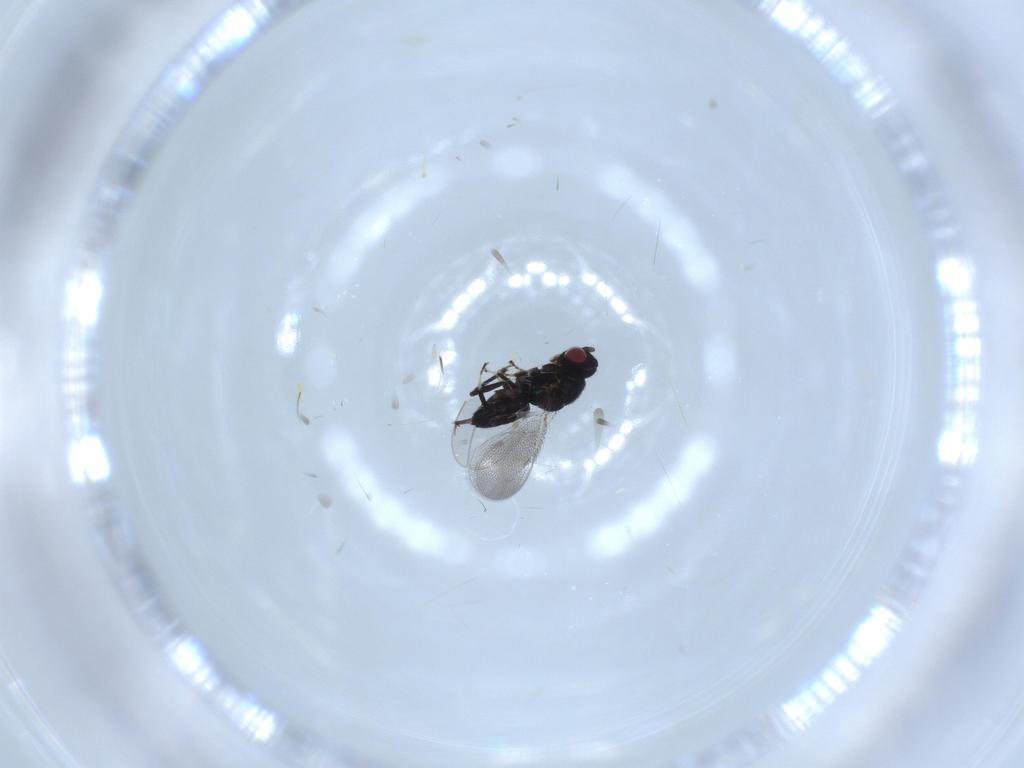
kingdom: Animalia
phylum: Arthropoda
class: Insecta
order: Hymenoptera
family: Eulophidae
